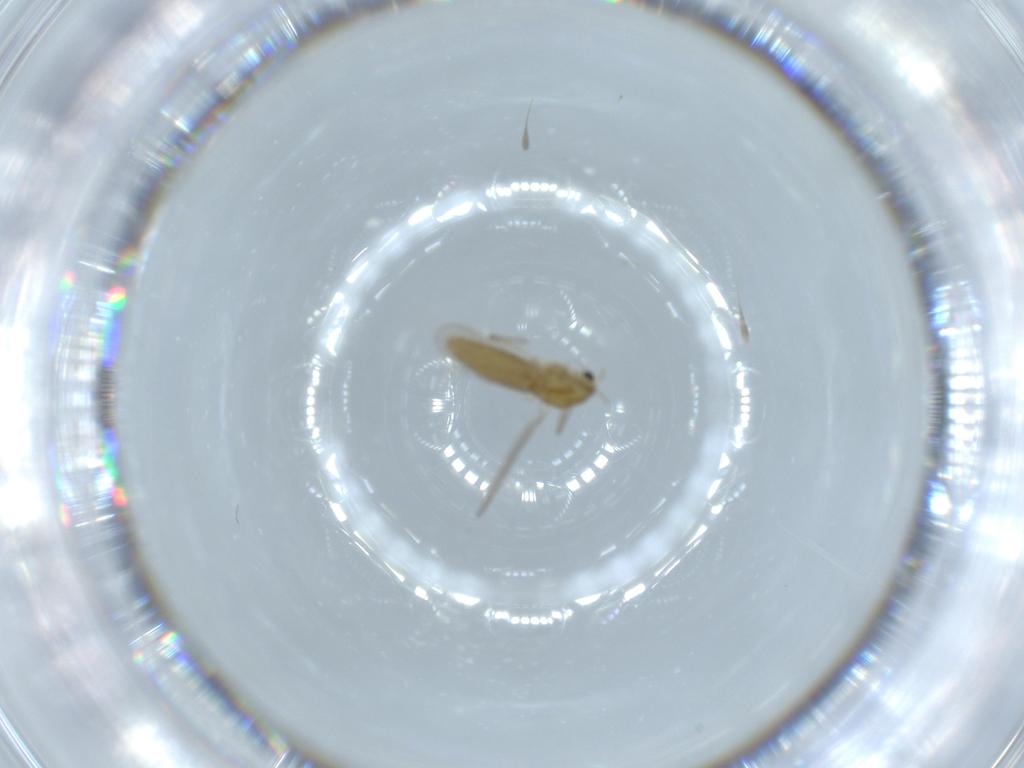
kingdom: Animalia
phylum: Arthropoda
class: Insecta
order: Diptera
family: Chironomidae
